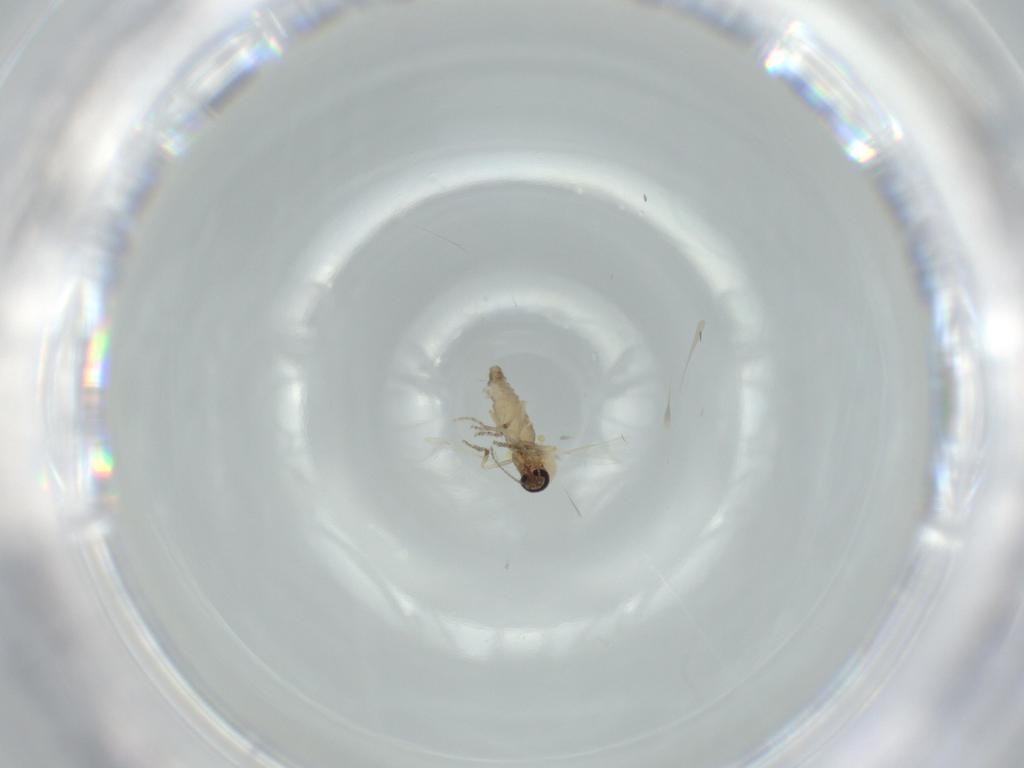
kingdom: Animalia
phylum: Arthropoda
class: Insecta
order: Diptera
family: Ceratopogonidae
